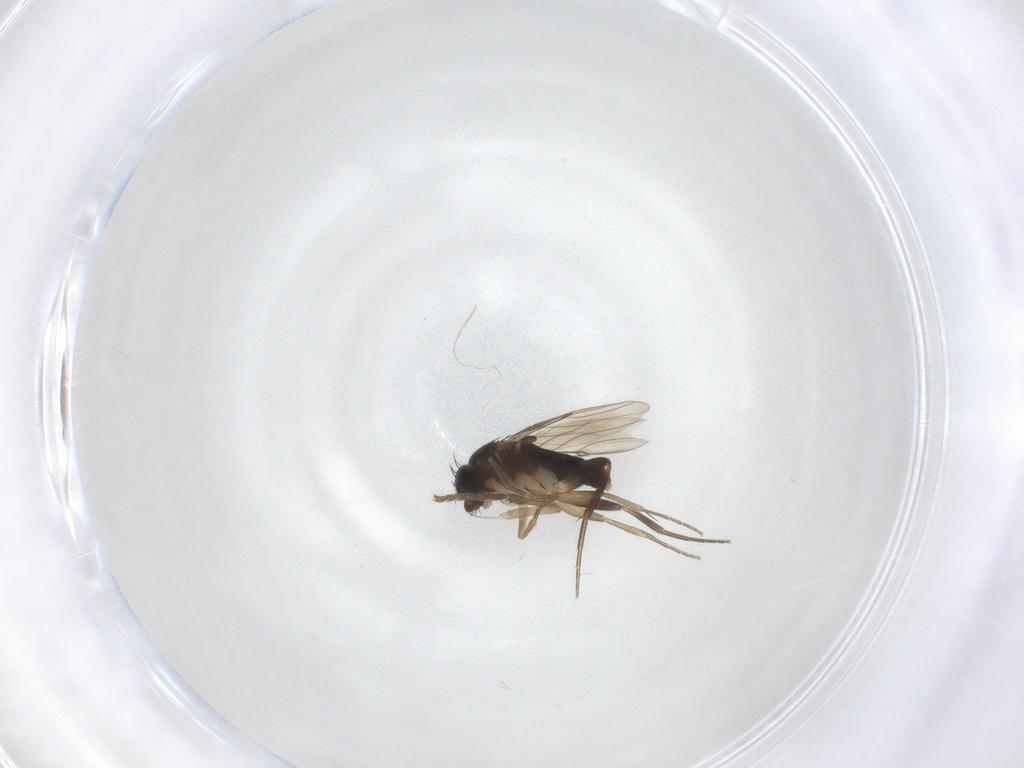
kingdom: Animalia
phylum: Arthropoda
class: Insecta
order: Diptera
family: Phoridae
